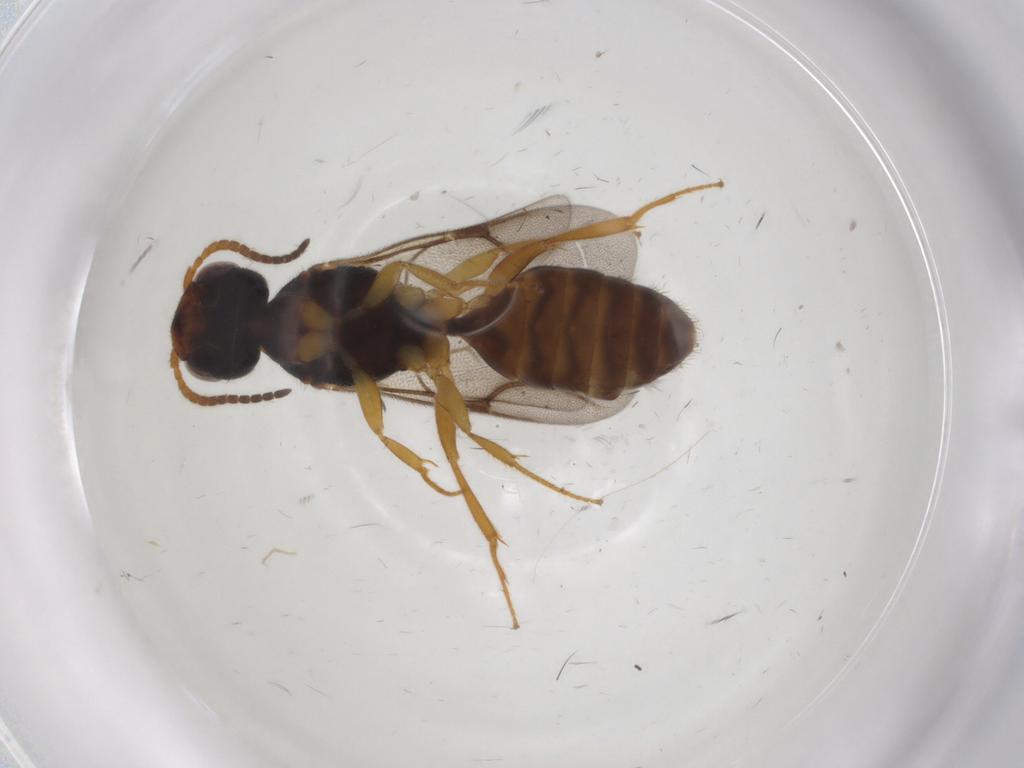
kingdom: Animalia
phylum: Arthropoda
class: Insecta
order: Hymenoptera
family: Bethylidae
